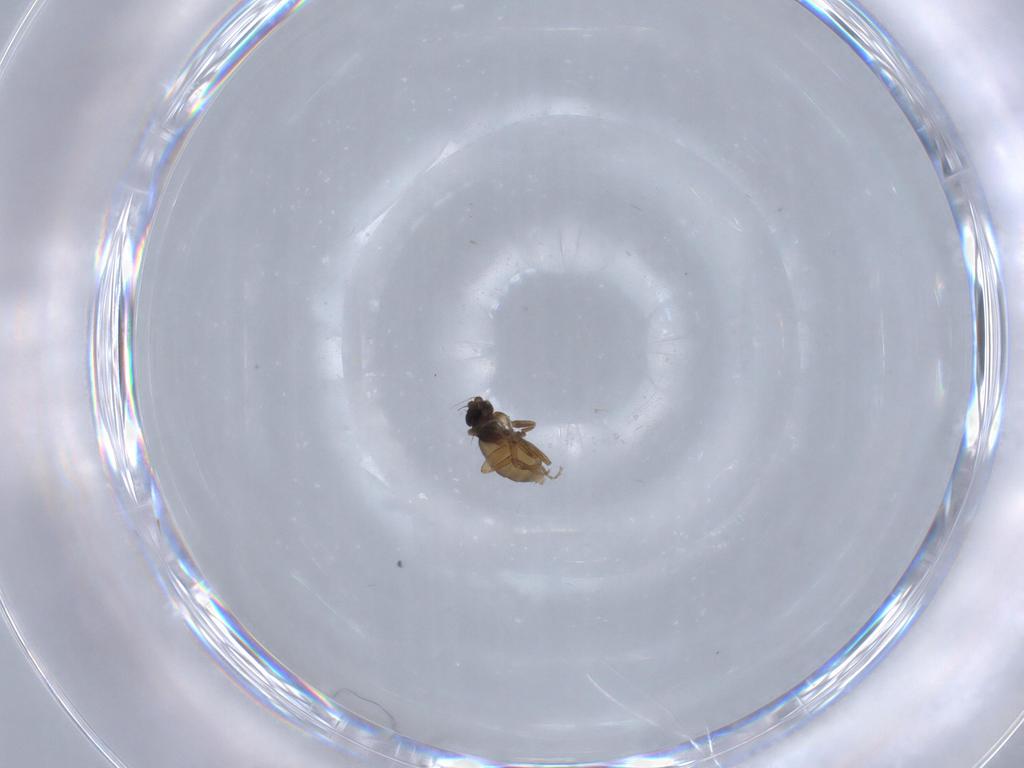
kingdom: Animalia
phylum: Arthropoda
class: Insecta
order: Diptera
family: Phoridae
